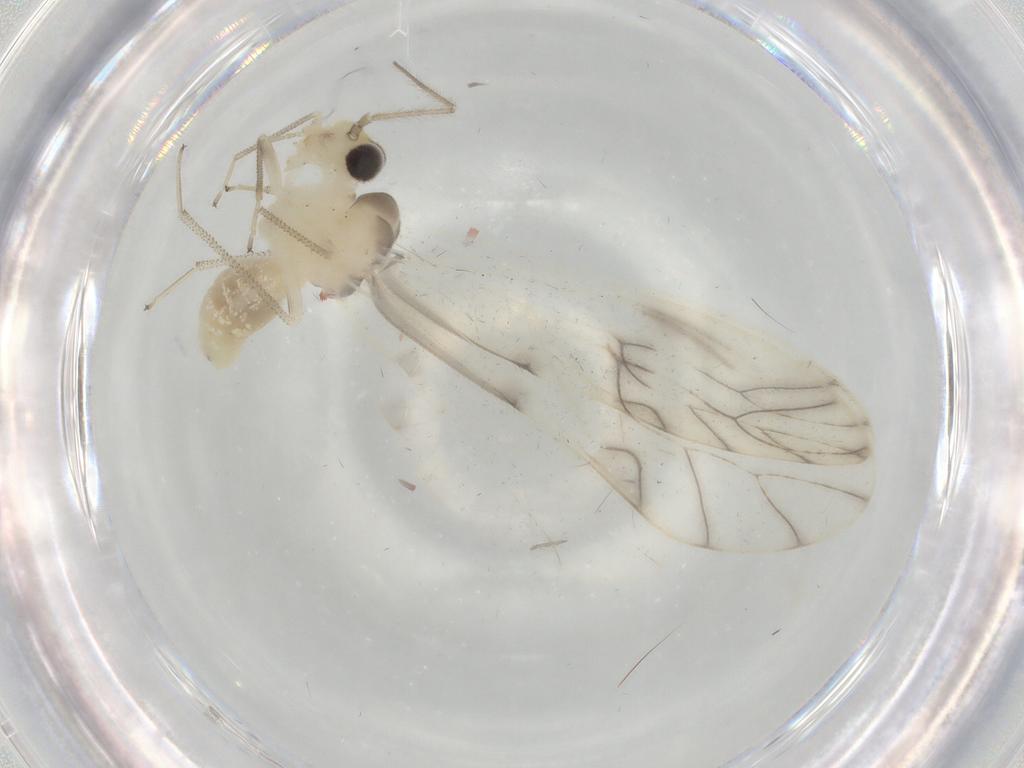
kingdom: Animalia
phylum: Arthropoda
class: Insecta
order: Psocodea
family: Caeciliusidae
